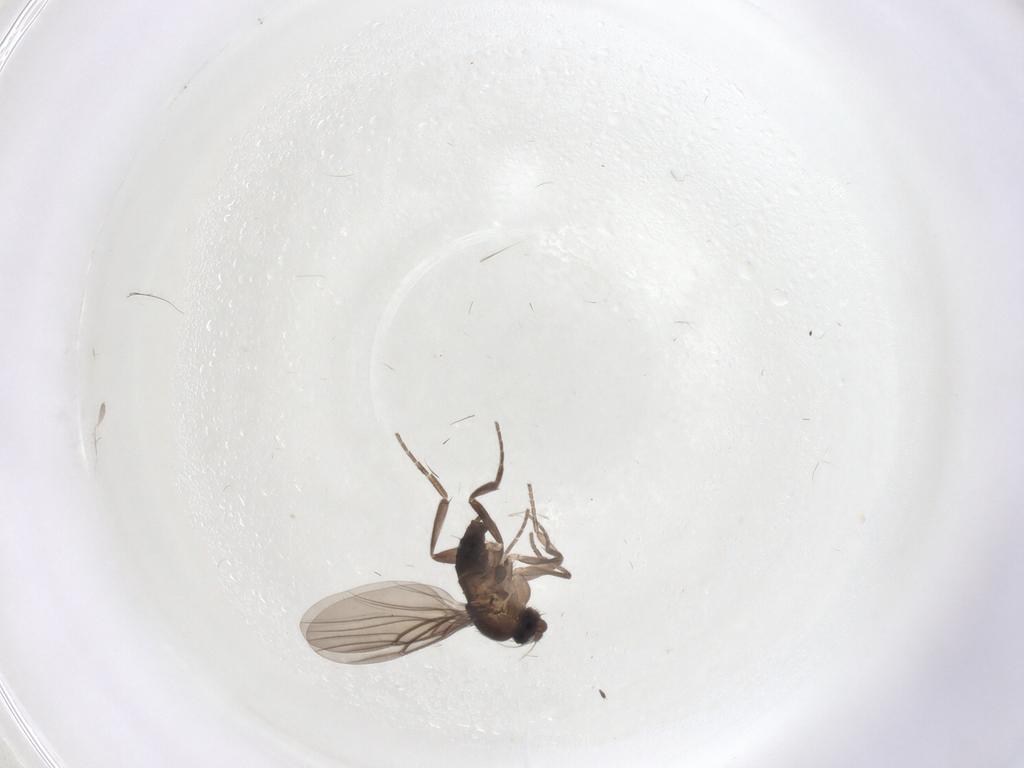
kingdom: Animalia
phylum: Arthropoda
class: Insecta
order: Diptera
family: Phoridae
